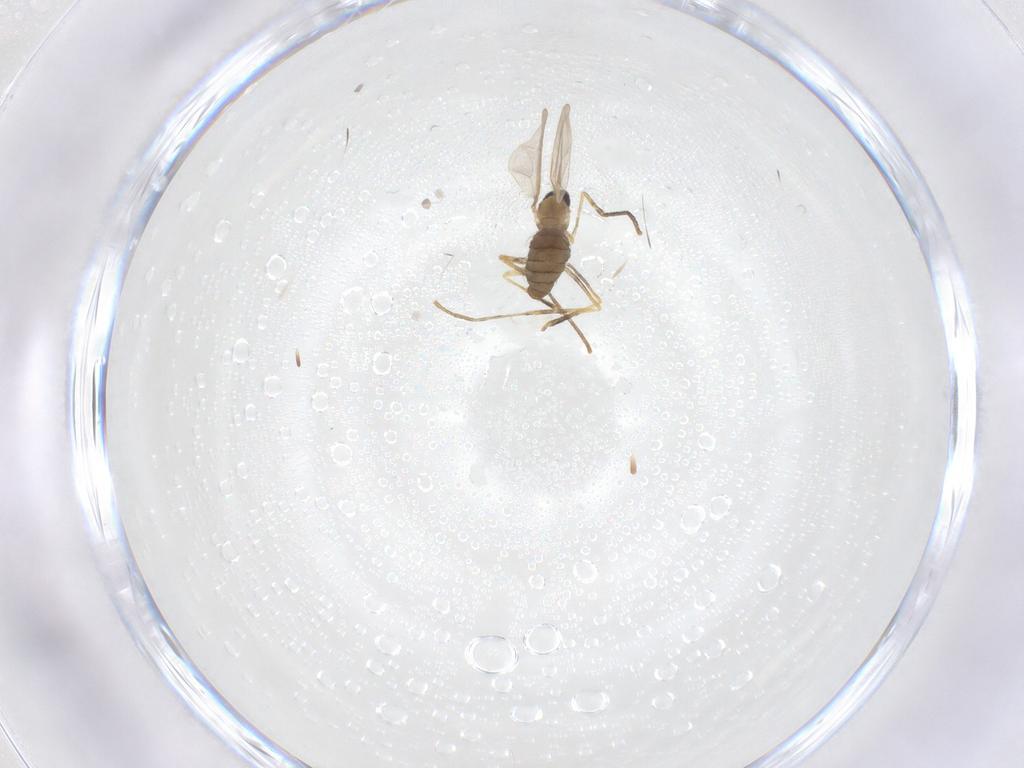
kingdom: Animalia
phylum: Arthropoda
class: Insecta
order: Diptera
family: Cecidomyiidae
